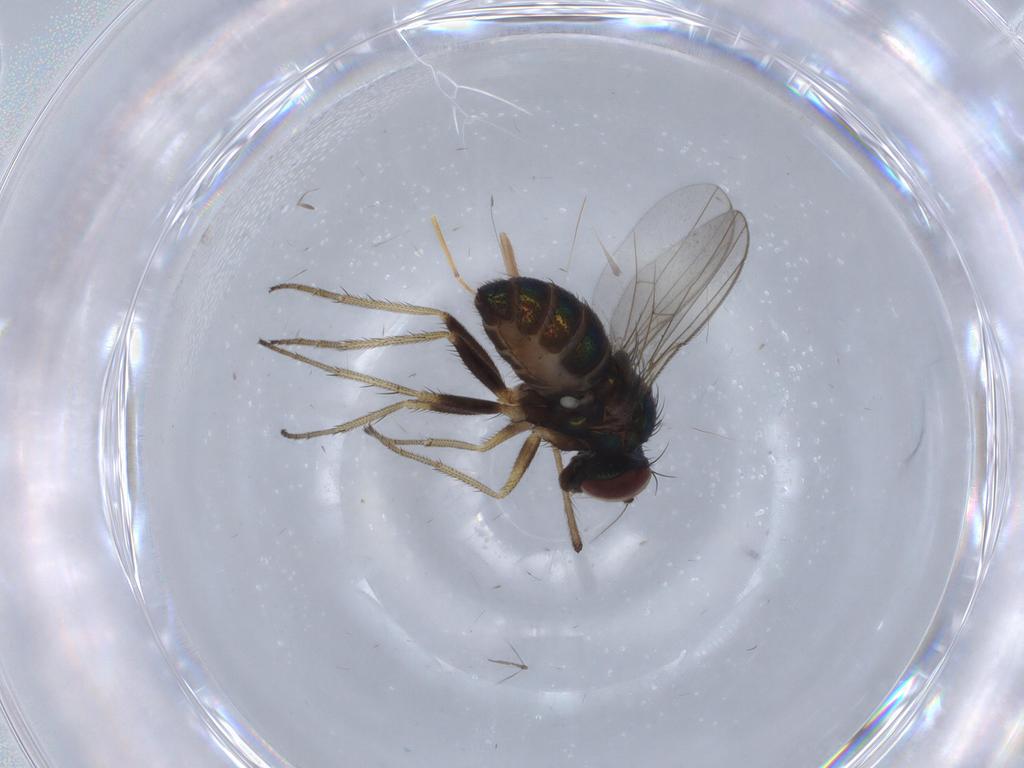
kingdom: Animalia
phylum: Arthropoda
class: Insecta
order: Diptera
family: Dolichopodidae
